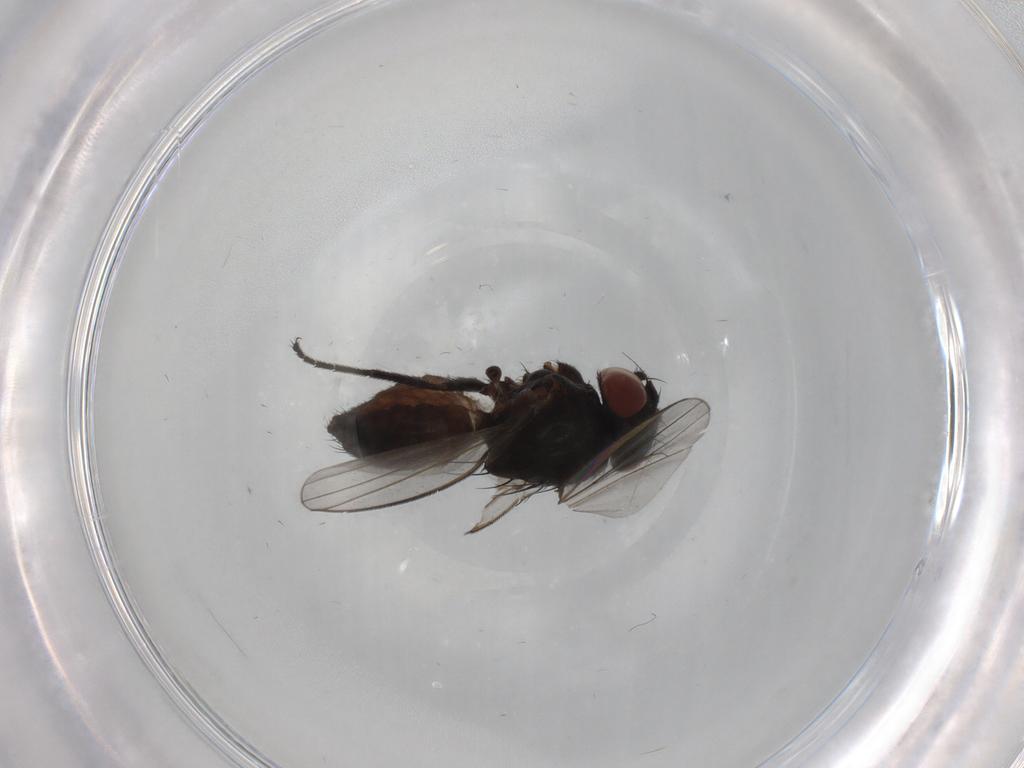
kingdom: Animalia
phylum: Arthropoda
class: Insecta
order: Diptera
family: Milichiidae
